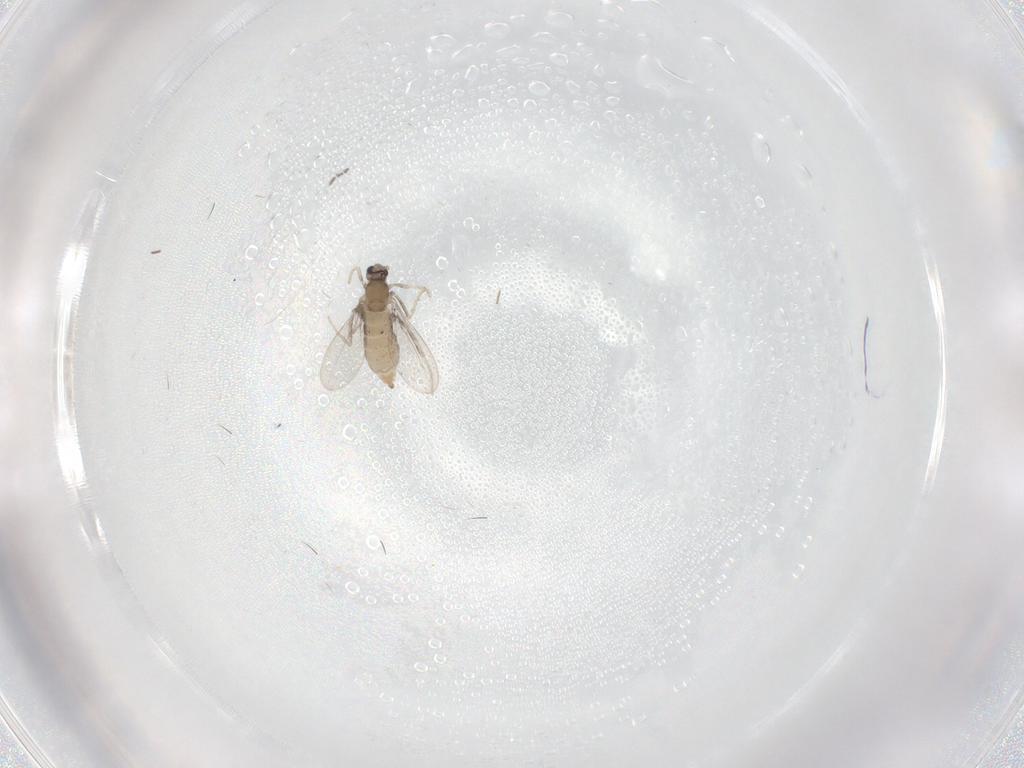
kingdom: Animalia
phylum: Arthropoda
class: Insecta
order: Diptera
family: Cecidomyiidae
